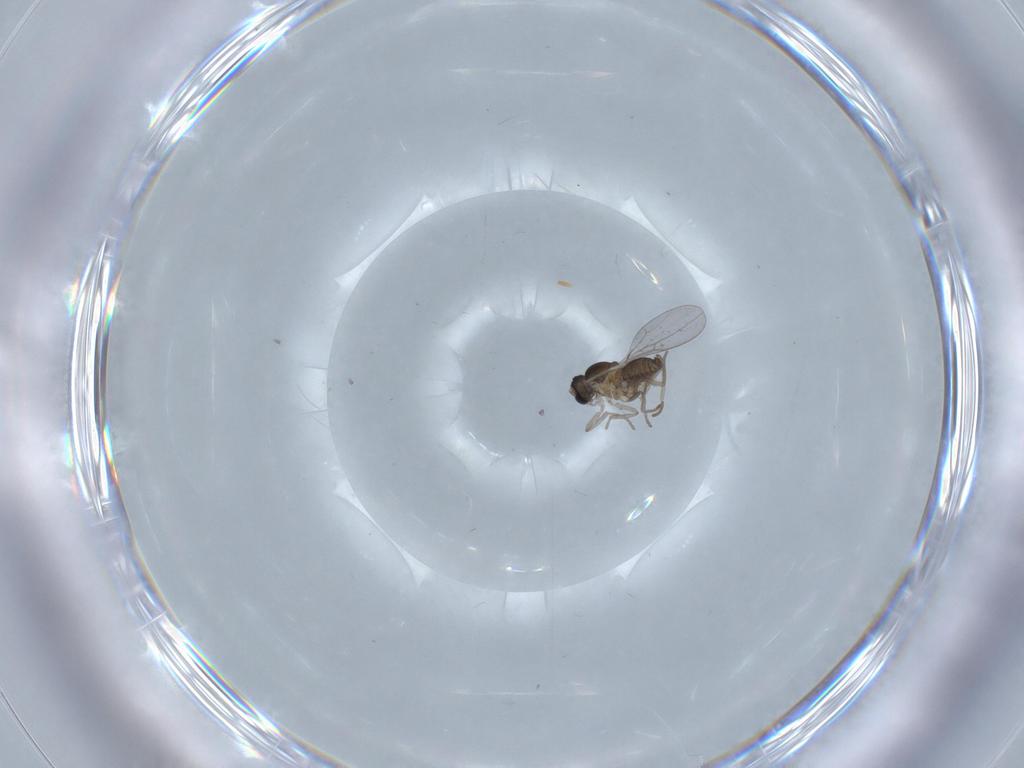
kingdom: Animalia
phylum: Arthropoda
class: Insecta
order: Diptera
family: Cecidomyiidae
